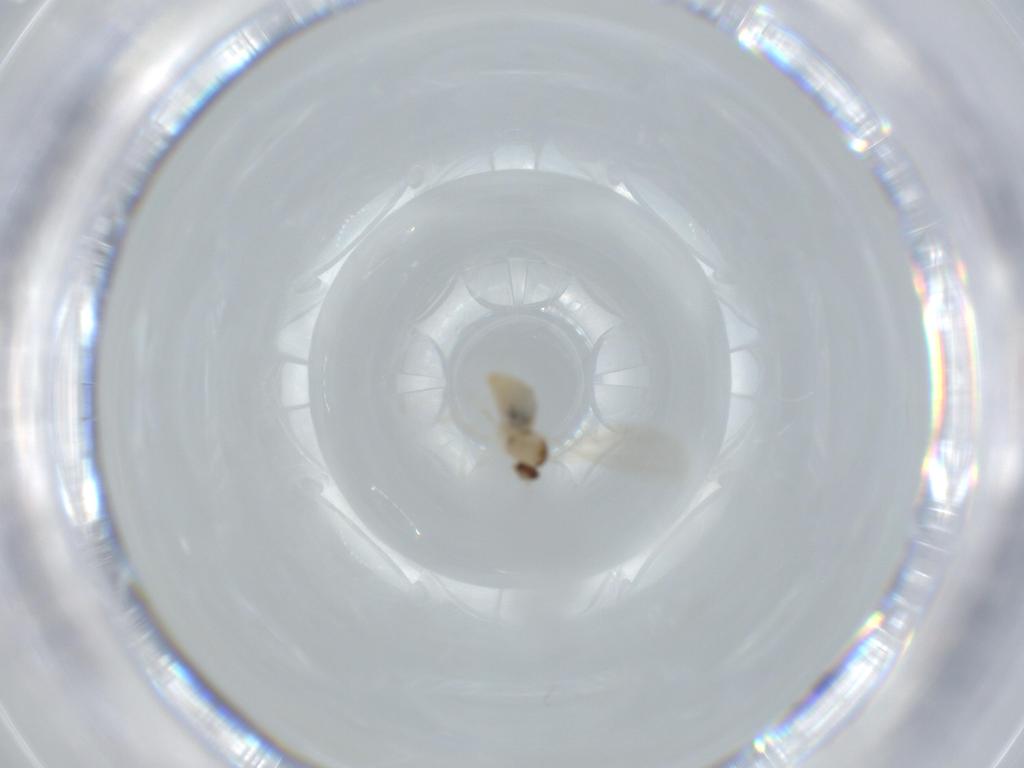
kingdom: Animalia
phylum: Arthropoda
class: Insecta
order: Diptera
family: Cecidomyiidae
